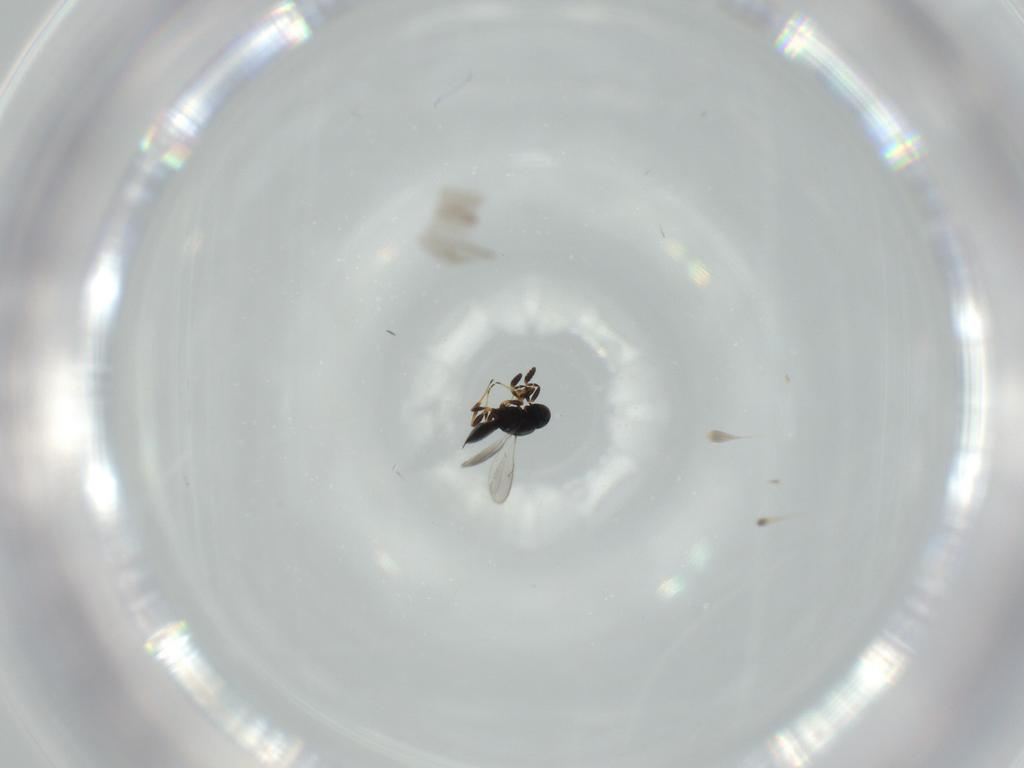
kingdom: Animalia
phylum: Arthropoda
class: Insecta
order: Hymenoptera
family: Scelionidae
